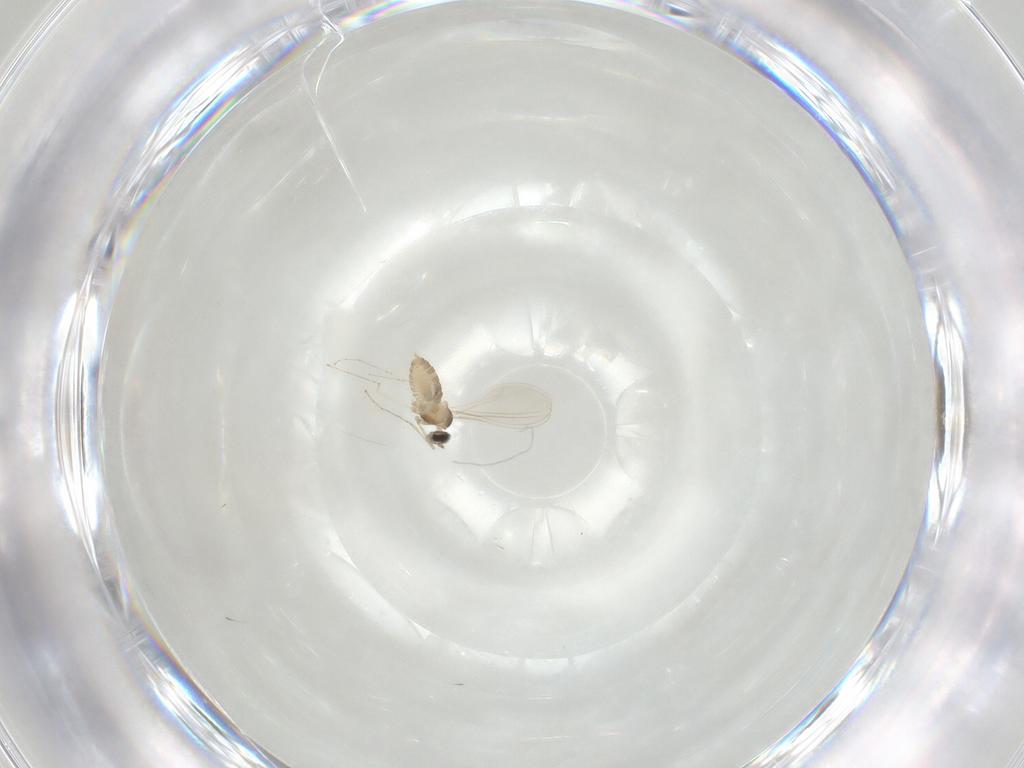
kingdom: Animalia
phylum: Arthropoda
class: Insecta
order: Diptera
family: Cecidomyiidae
